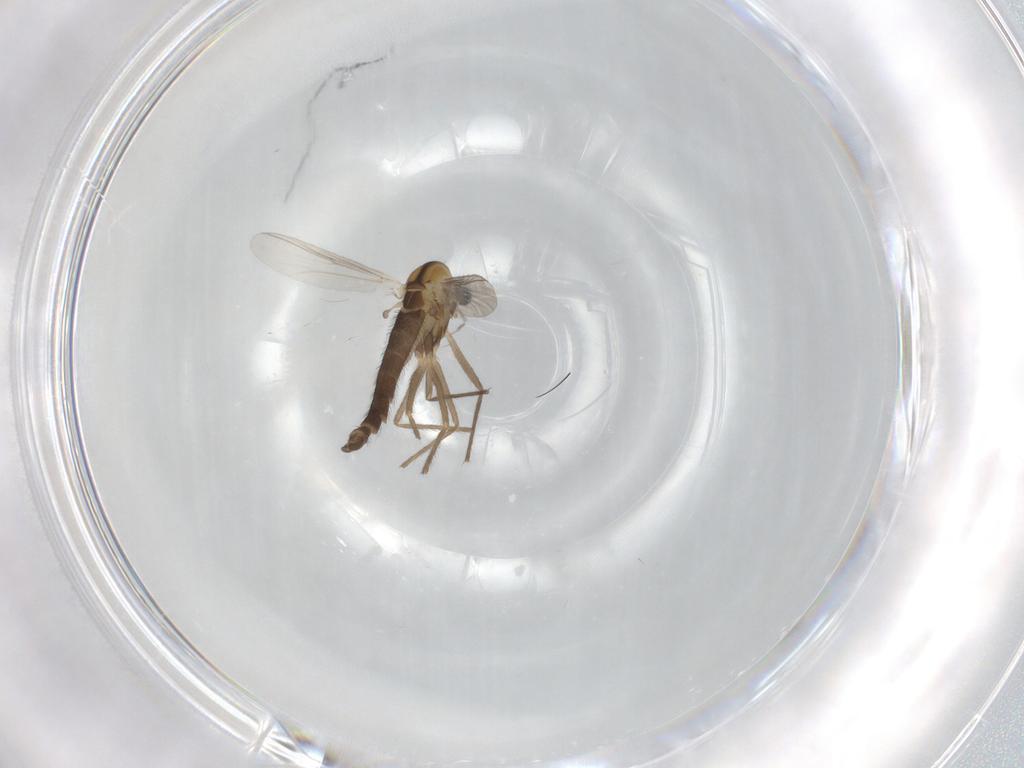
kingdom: Animalia
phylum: Arthropoda
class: Insecta
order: Diptera
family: Chironomidae
